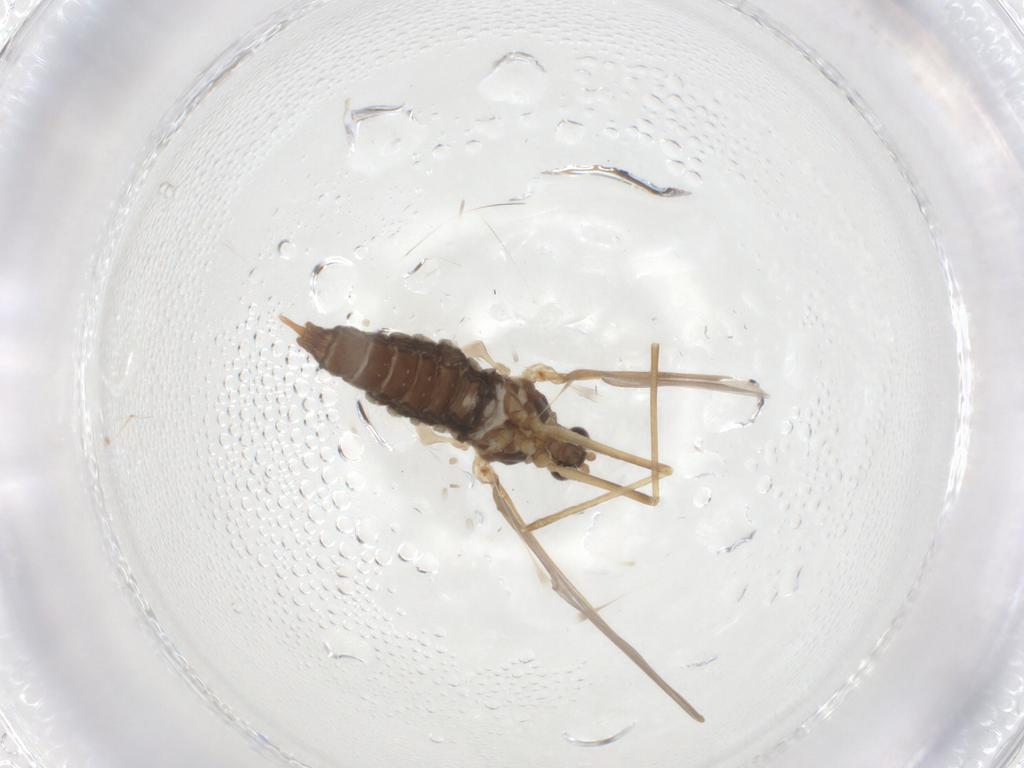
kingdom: Animalia
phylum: Arthropoda
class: Insecta
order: Diptera
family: Cecidomyiidae
